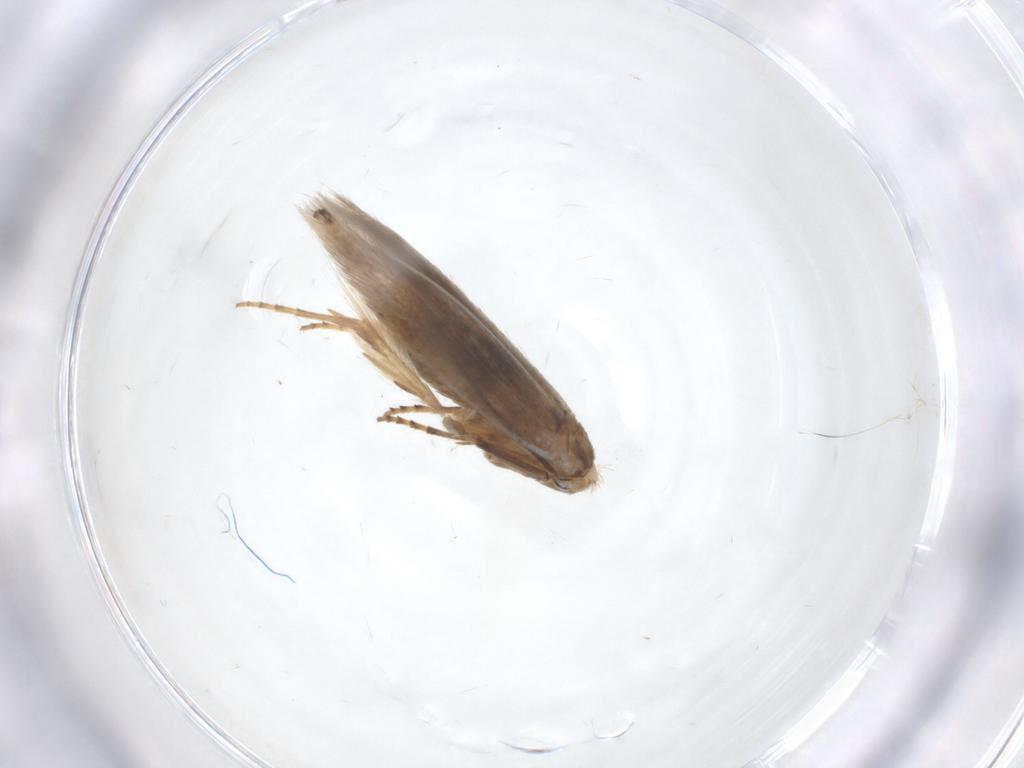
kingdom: Animalia
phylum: Arthropoda
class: Insecta
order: Lepidoptera
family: Bucculatricidae
